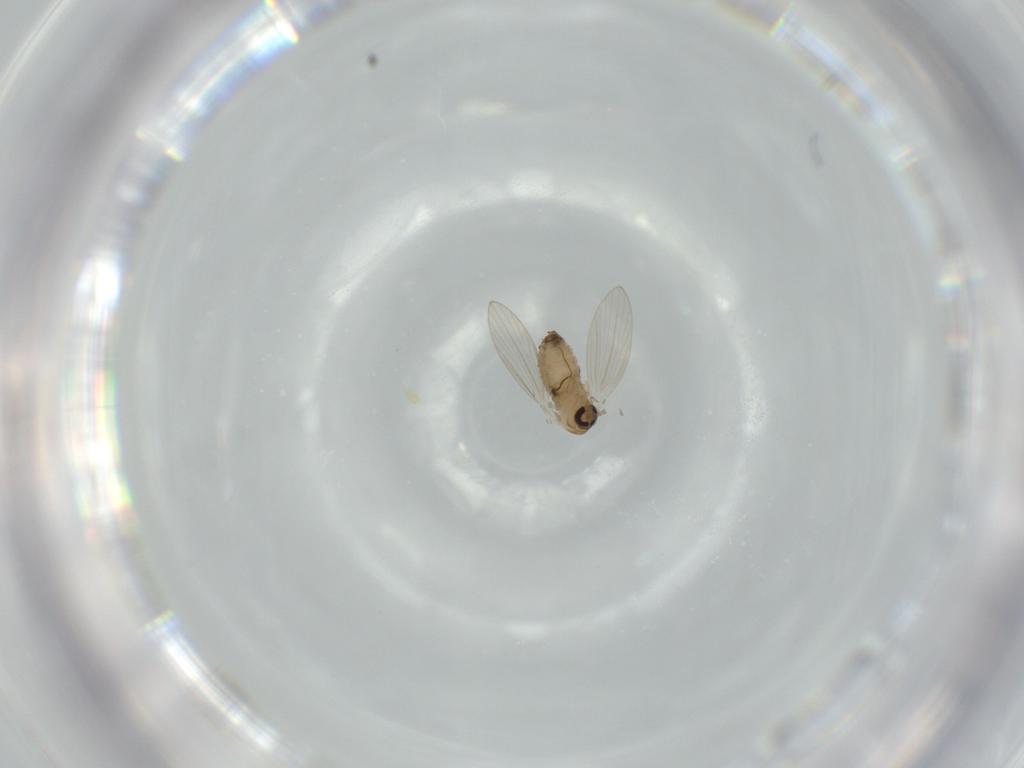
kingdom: Animalia
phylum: Arthropoda
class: Insecta
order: Diptera
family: Psychodidae
